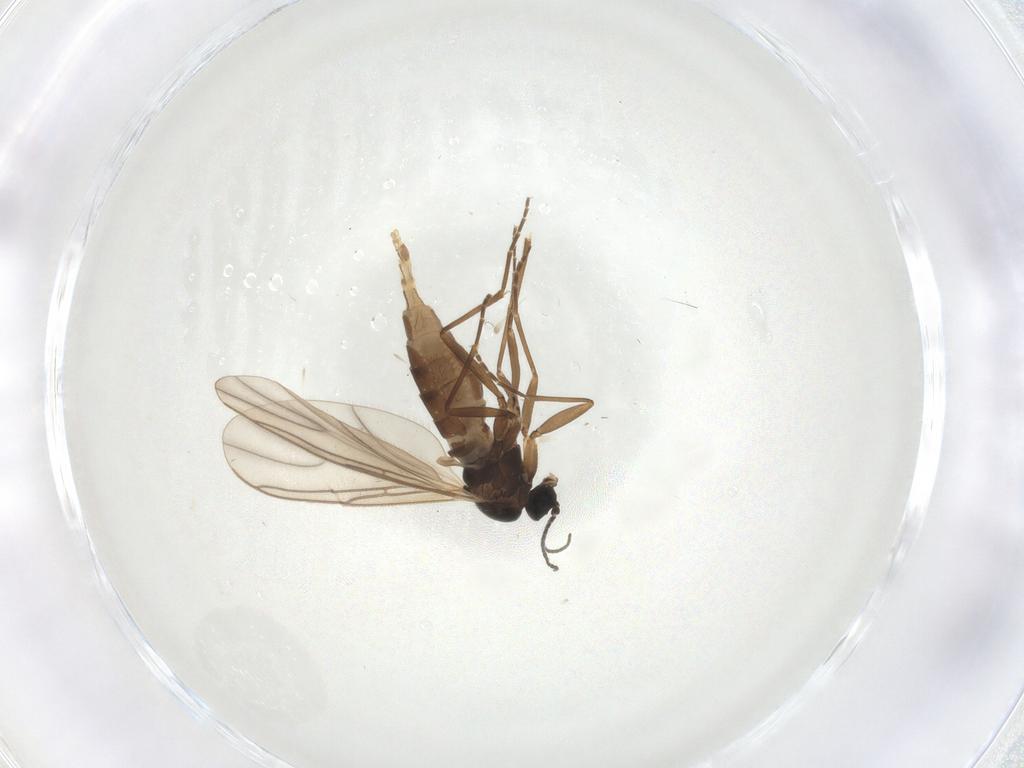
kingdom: Animalia
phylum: Arthropoda
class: Insecta
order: Diptera
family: Sciaridae
